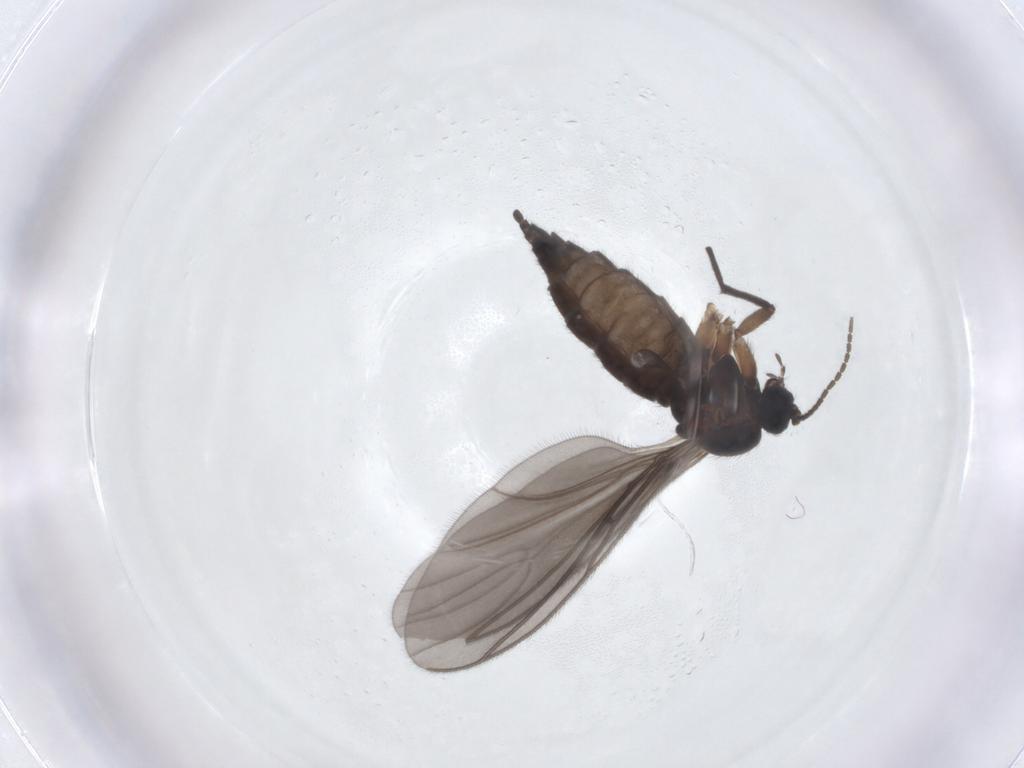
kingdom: Animalia
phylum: Arthropoda
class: Insecta
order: Diptera
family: Sciaridae
